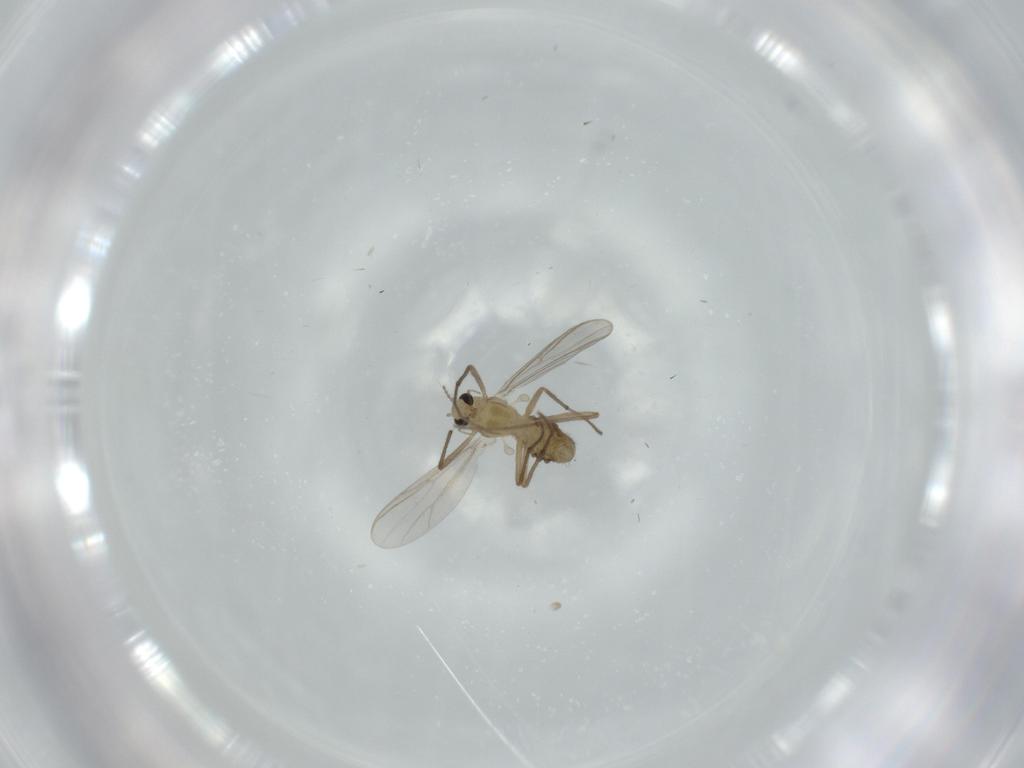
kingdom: Animalia
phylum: Arthropoda
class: Insecta
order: Diptera
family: Chironomidae
